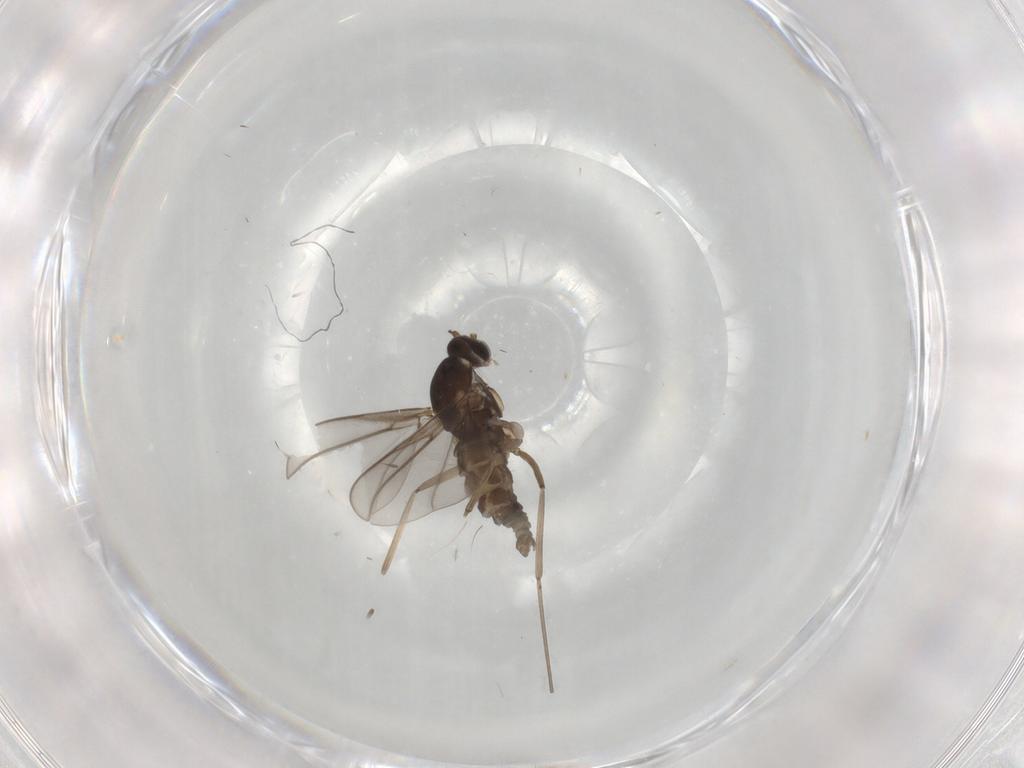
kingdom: Animalia
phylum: Arthropoda
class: Insecta
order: Diptera
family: Cecidomyiidae
